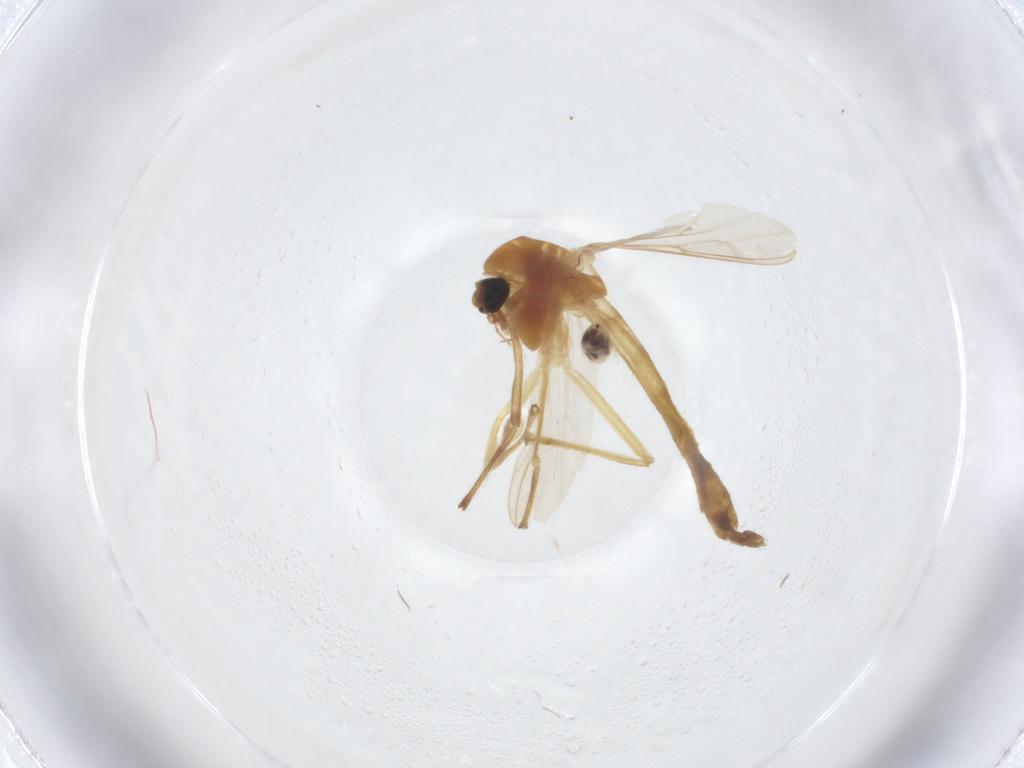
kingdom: Animalia
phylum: Arthropoda
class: Insecta
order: Diptera
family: Chironomidae
